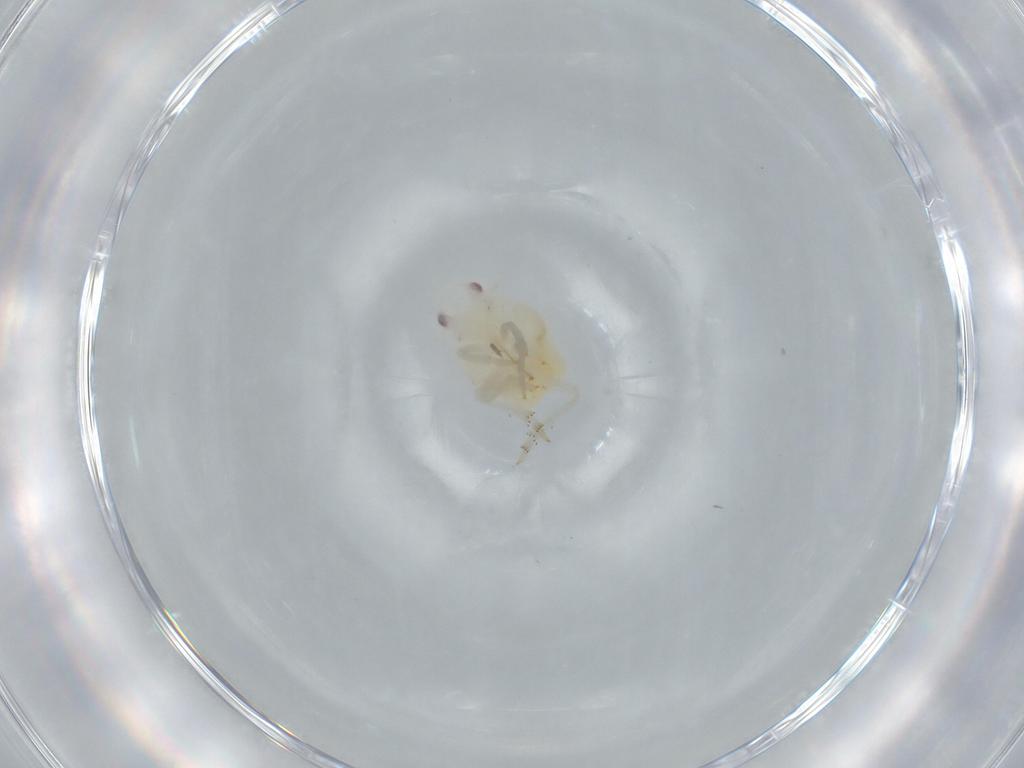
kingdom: Animalia
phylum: Arthropoda
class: Insecta
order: Hemiptera
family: Flatidae
